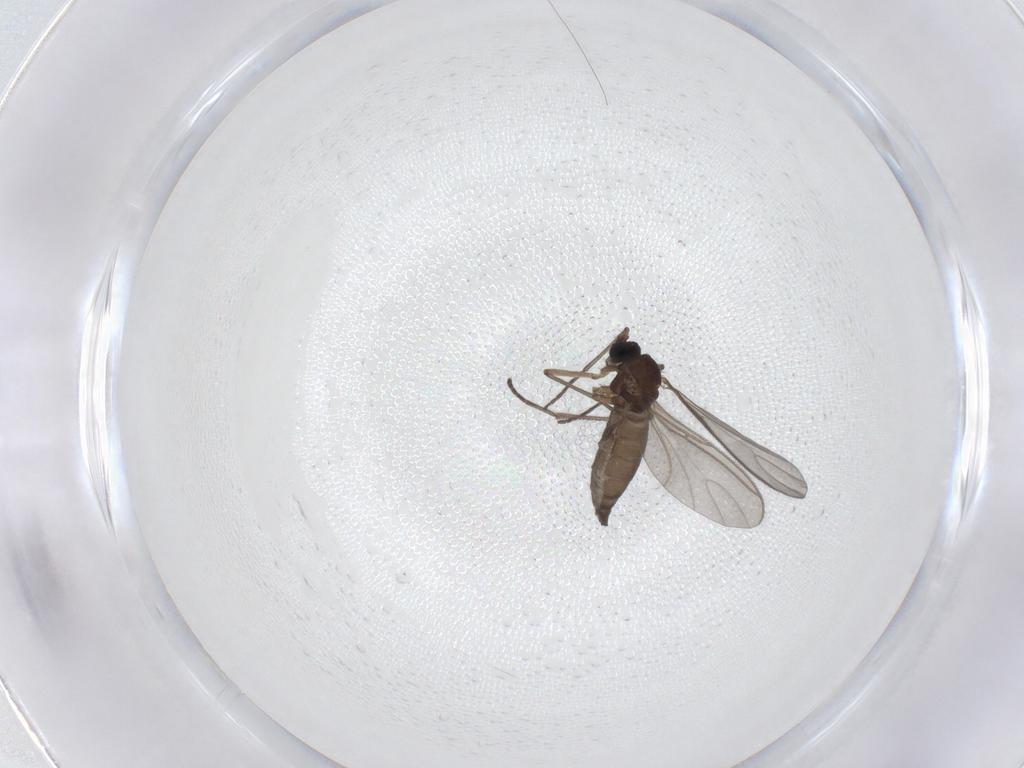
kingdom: Animalia
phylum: Arthropoda
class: Insecta
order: Diptera
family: Sciaridae
